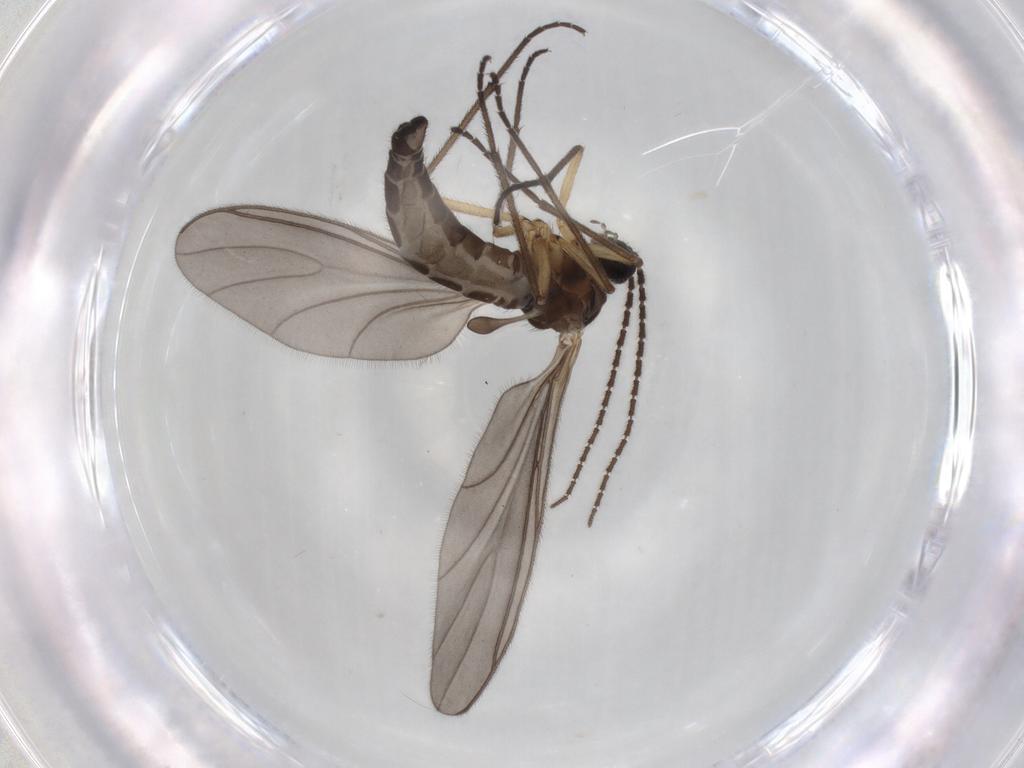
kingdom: Animalia
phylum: Arthropoda
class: Insecta
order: Diptera
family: Sciaridae
